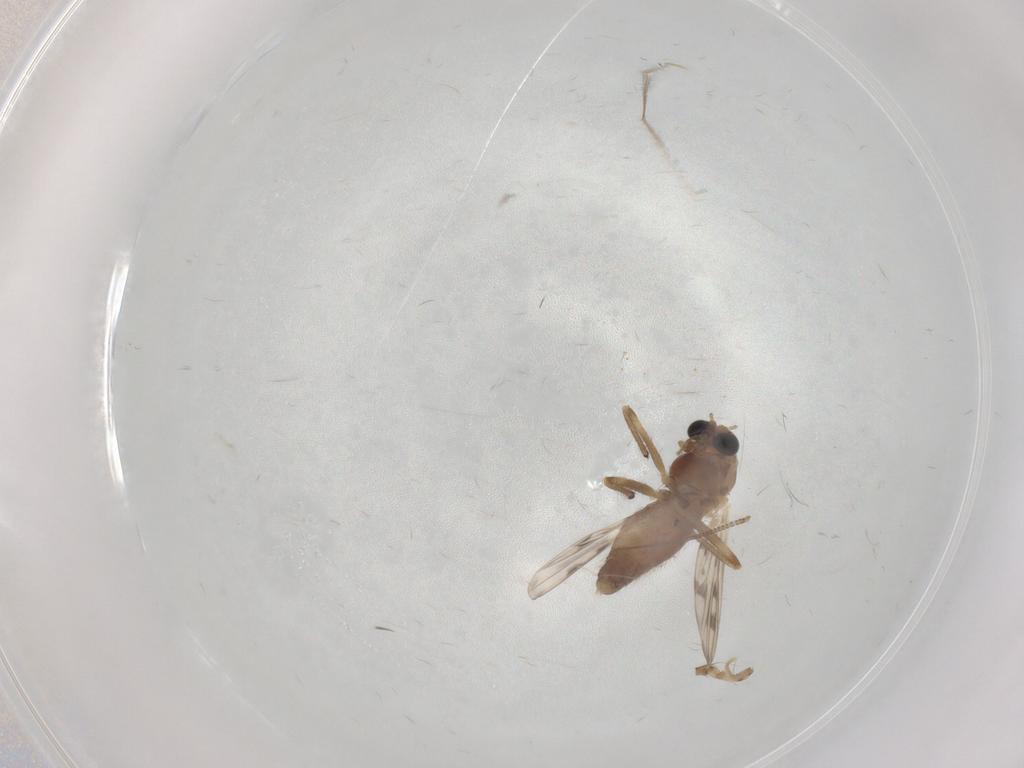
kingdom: Animalia
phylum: Arthropoda
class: Insecta
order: Diptera
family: Chironomidae
